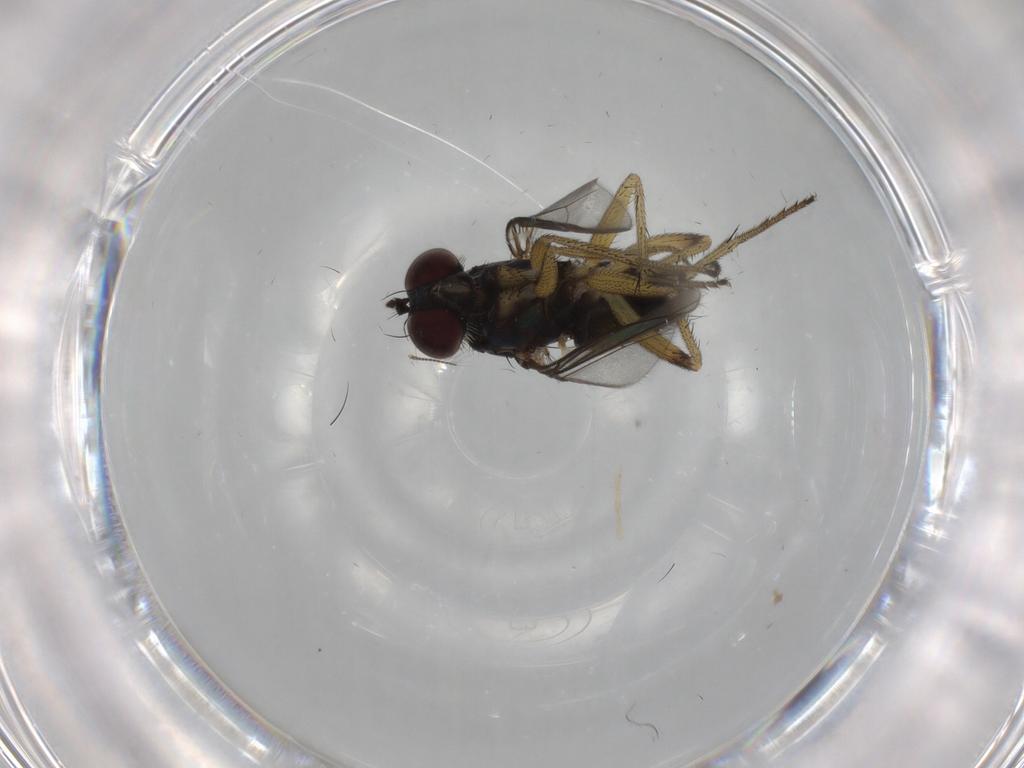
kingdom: Animalia
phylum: Arthropoda
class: Insecta
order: Diptera
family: Dolichopodidae
